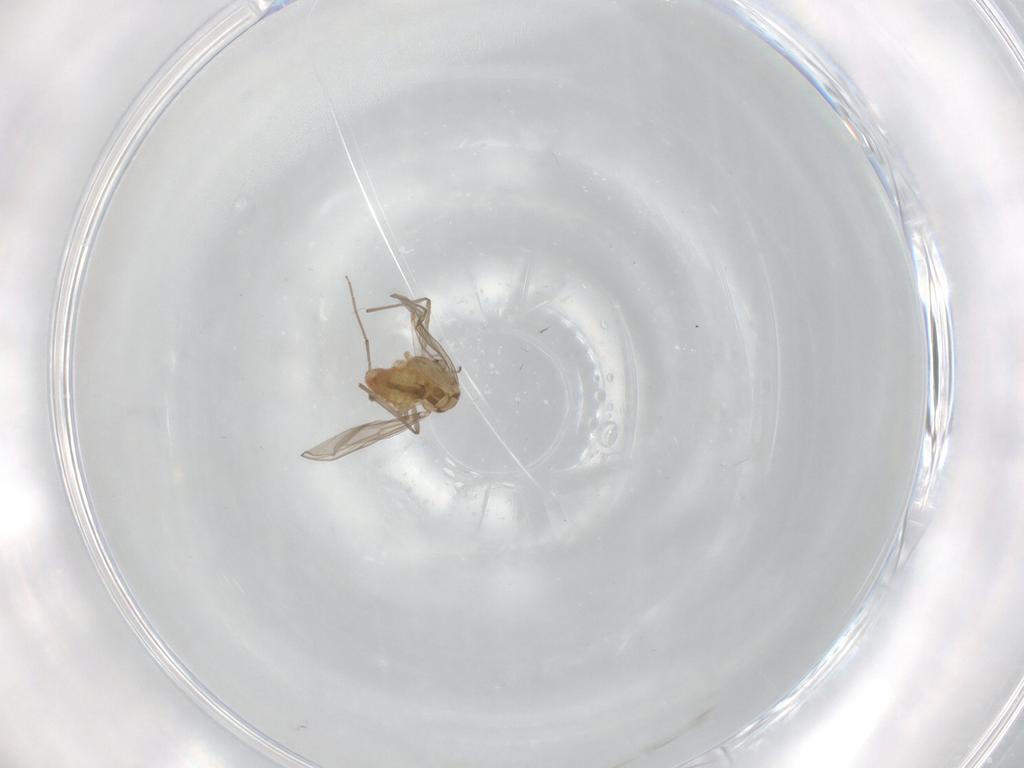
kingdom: Animalia
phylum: Arthropoda
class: Insecta
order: Diptera
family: Chironomidae
